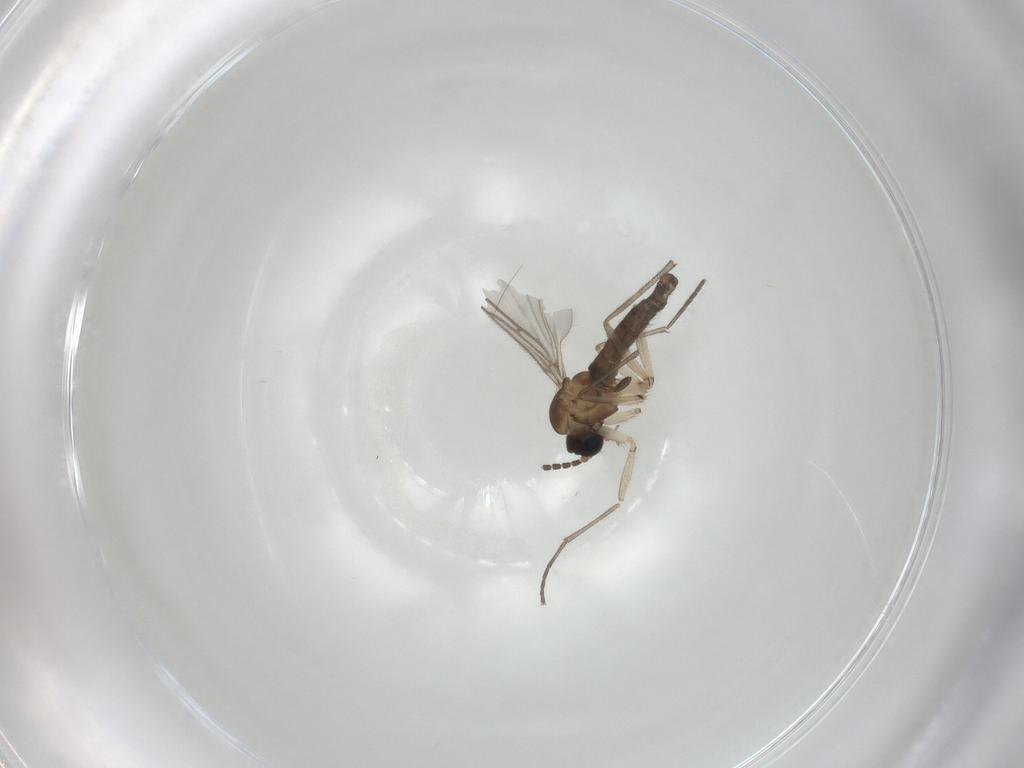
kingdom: Animalia
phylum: Arthropoda
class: Insecta
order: Diptera
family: Sciaridae
